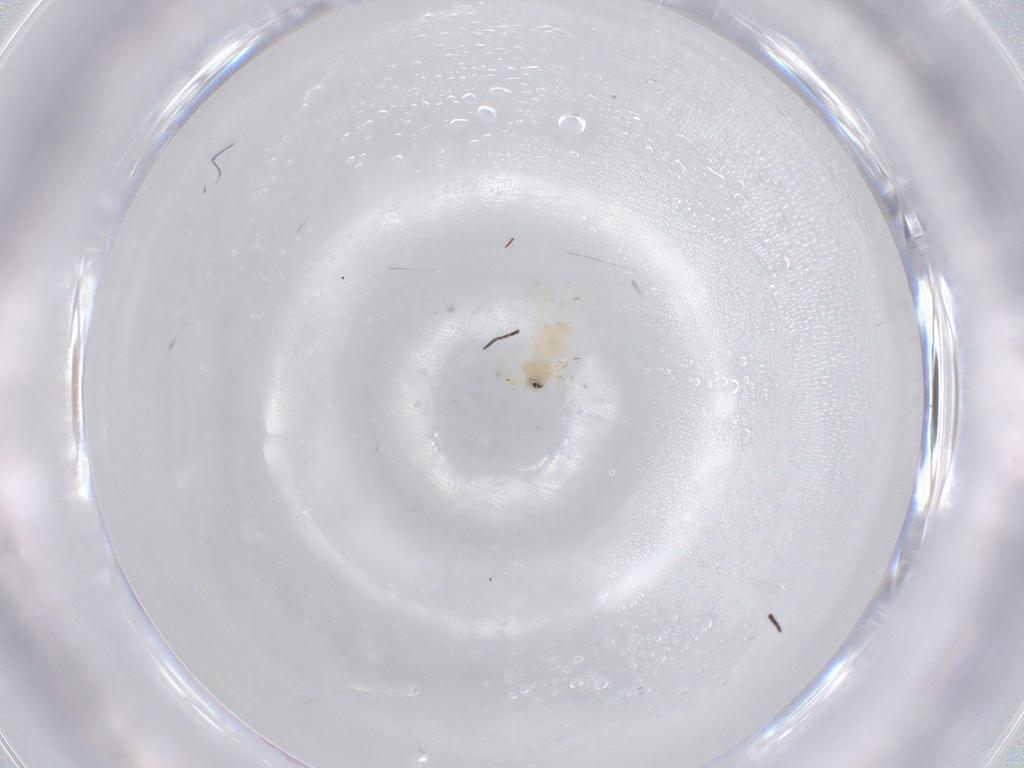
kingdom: Animalia
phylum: Arthropoda
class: Insecta
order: Hemiptera
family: Aleyrodidae
